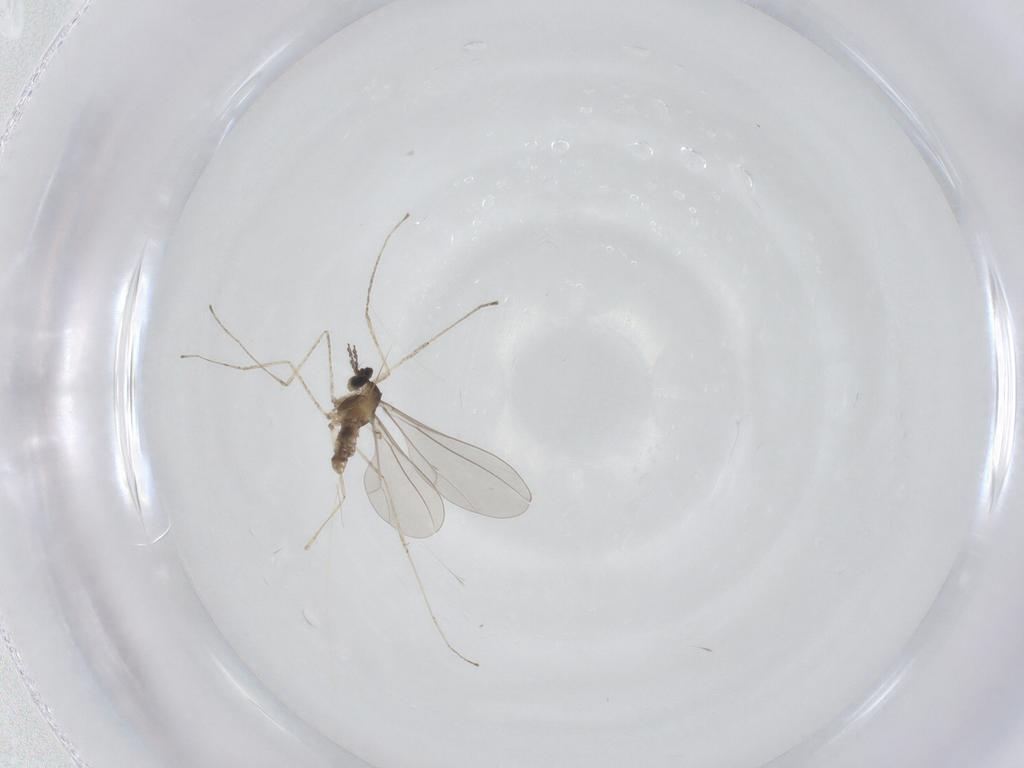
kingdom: Animalia
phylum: Arthropoda
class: Insecta
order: Diptera
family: Cecidomyiidae
